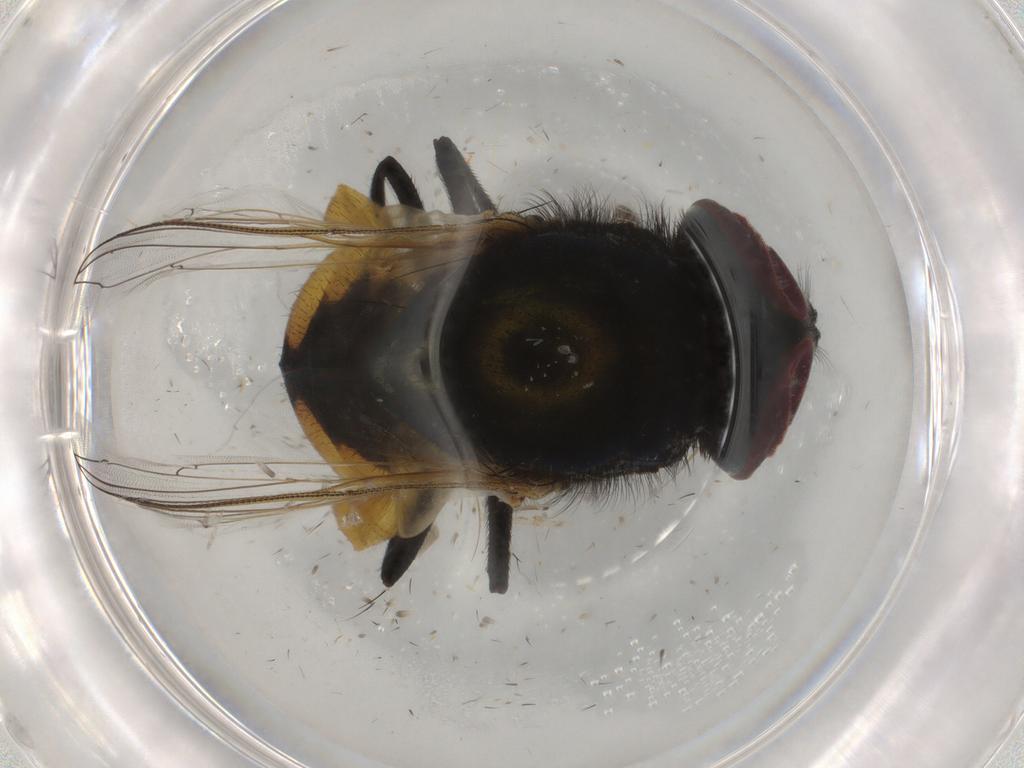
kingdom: Animalia
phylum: Arthropoda
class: Insecta
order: Diptera
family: Muscidae
